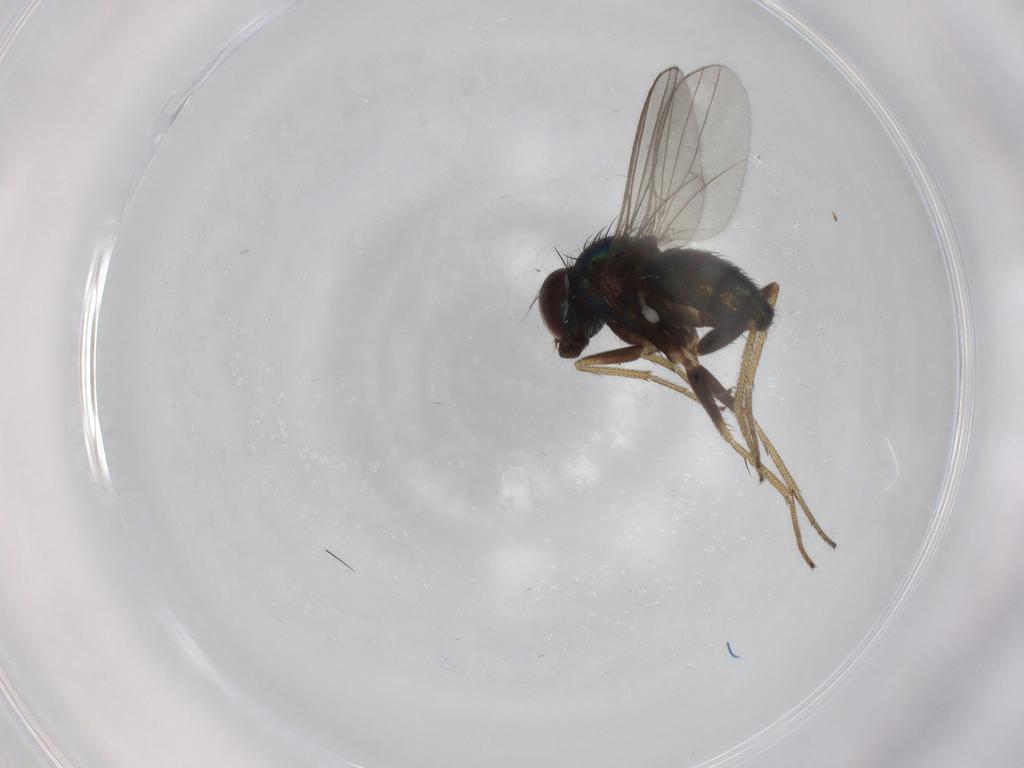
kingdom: Animalia
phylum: Arthropoda
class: Insecta
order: Diptera
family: Dolichopodidae
